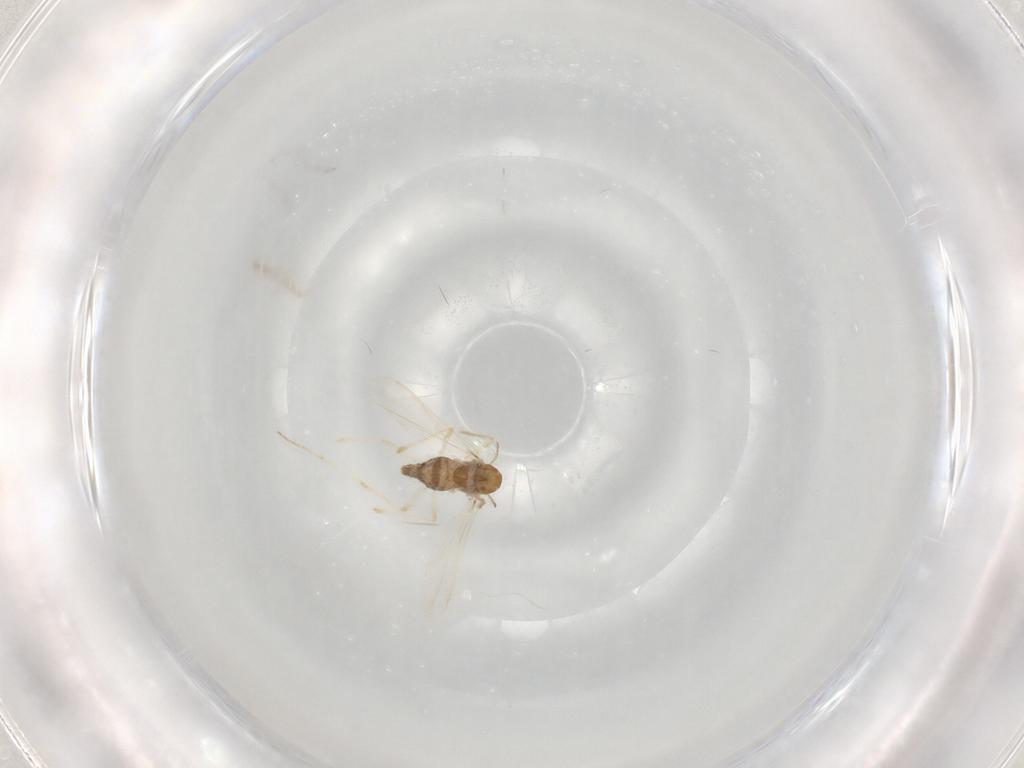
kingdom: Animalia
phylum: Arthropoda
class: Insecta
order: Diptera
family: Chironomidae
